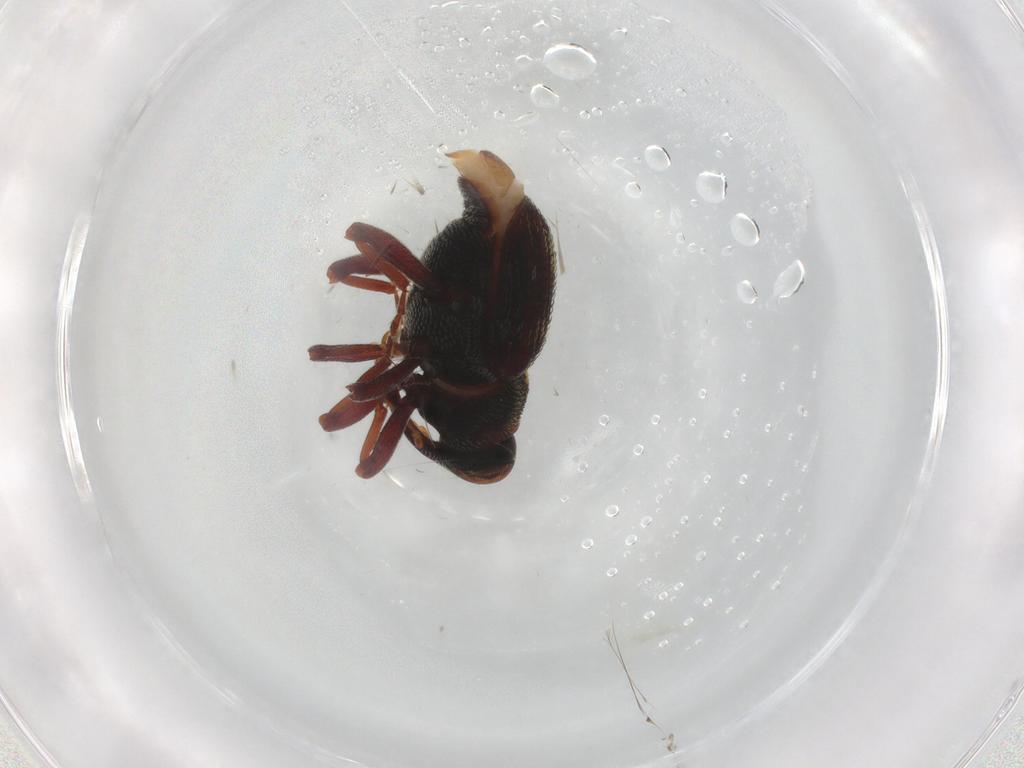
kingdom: Animalia
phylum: Arthropoda
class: Insecta
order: Coleoptera
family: Curculionidae
